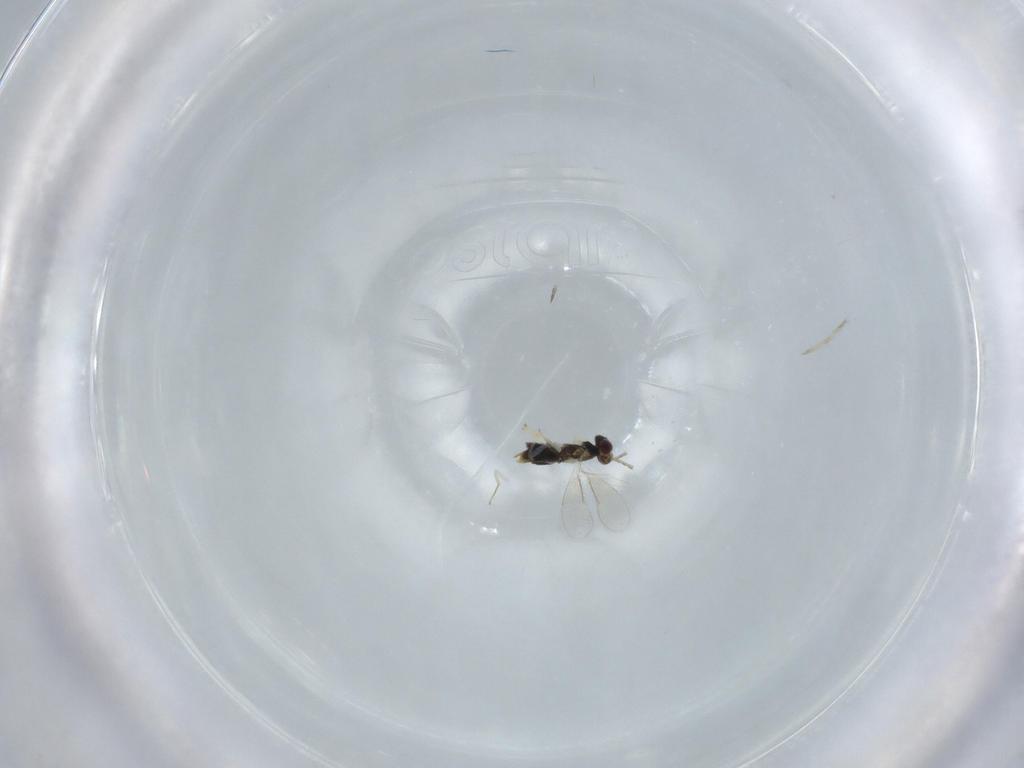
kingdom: Animalia
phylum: Arthropoda
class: Insecta
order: Hymenoptera
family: Aphelinidae
